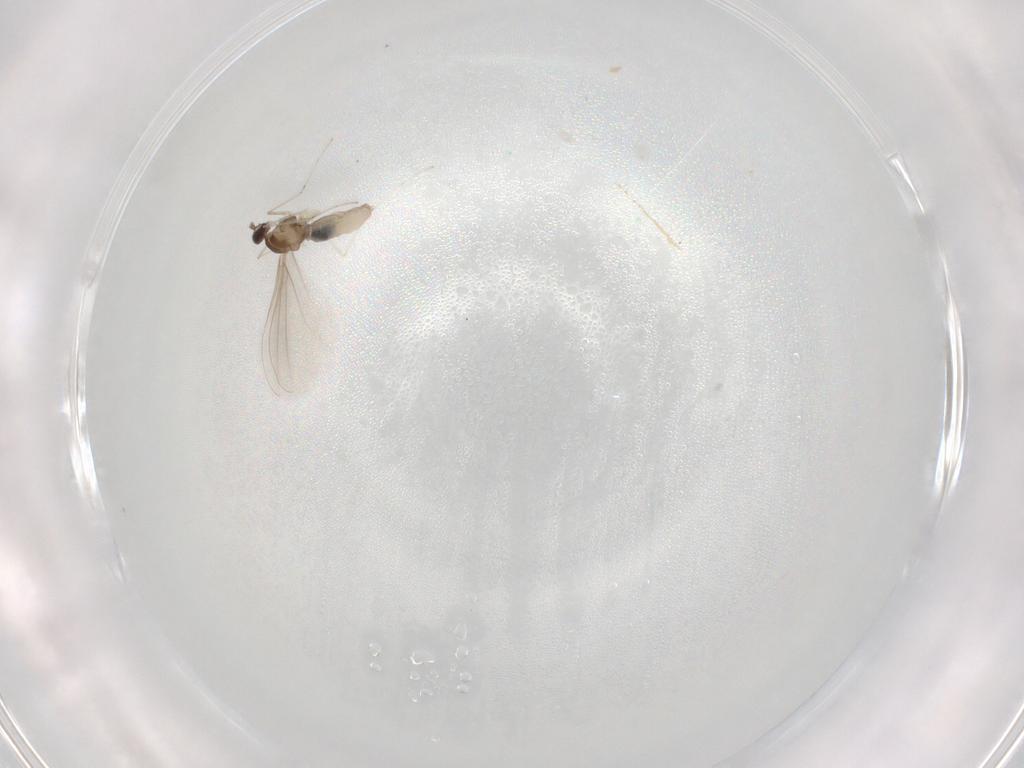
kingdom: Animalia
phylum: Arthropoda
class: Insecta
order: Diptera
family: Cecidomyiidae
